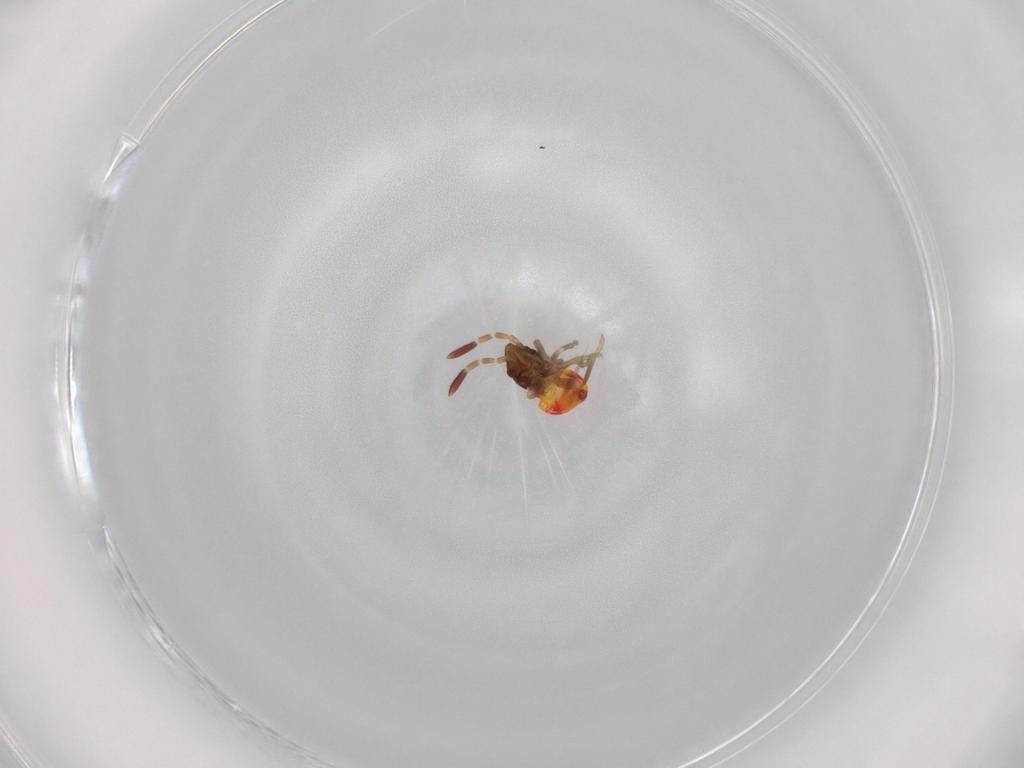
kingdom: Animalia
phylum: Arthropoda
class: Insecta
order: Hemiptera
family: Rhyparochromidae
